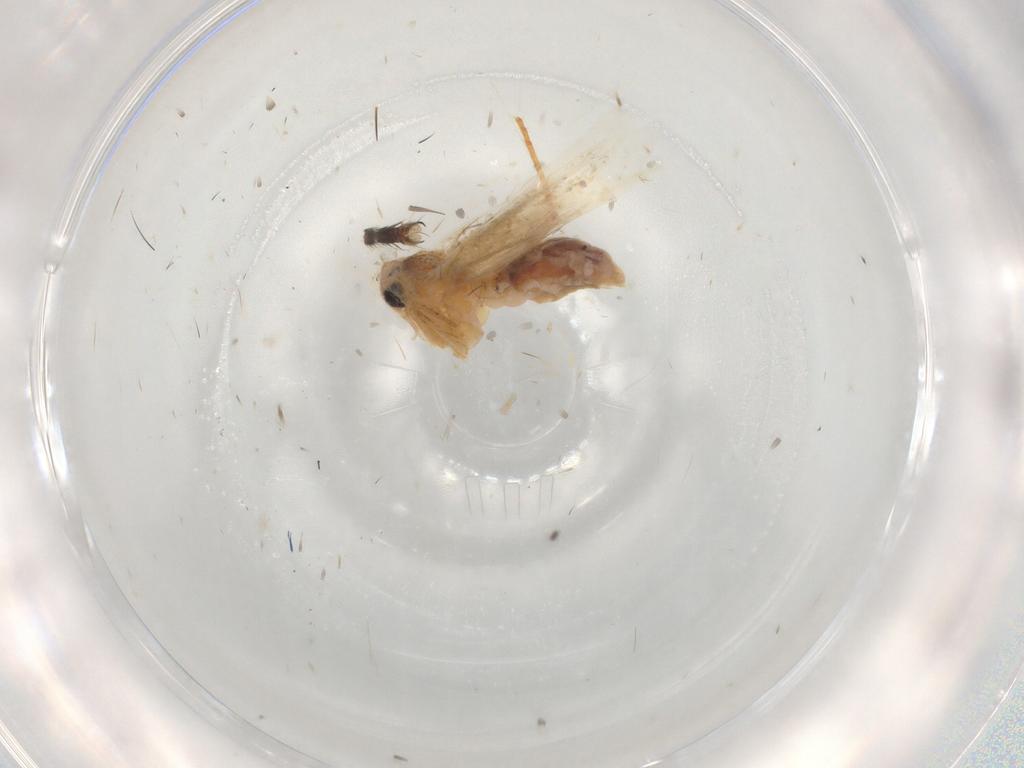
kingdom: Animalia
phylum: Arthropoda
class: Insecta
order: Lepidoptera
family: Bucculatricidae
